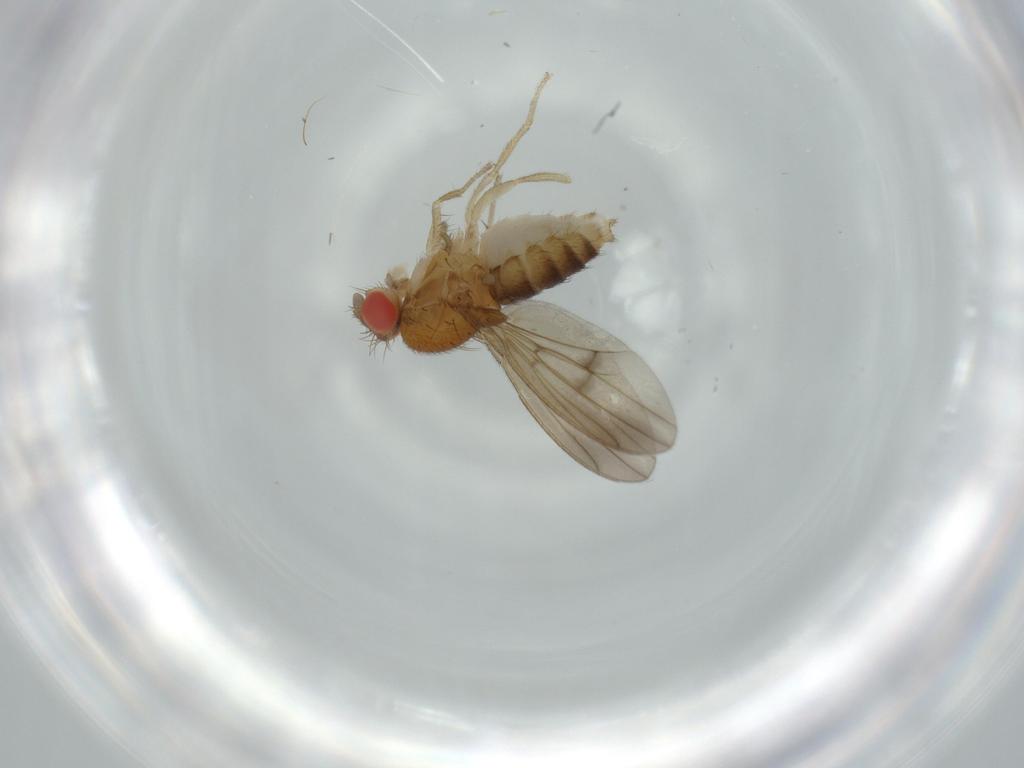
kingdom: Animalia
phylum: Arthropoda
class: Insecta
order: Diptera
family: Drosophilidae
